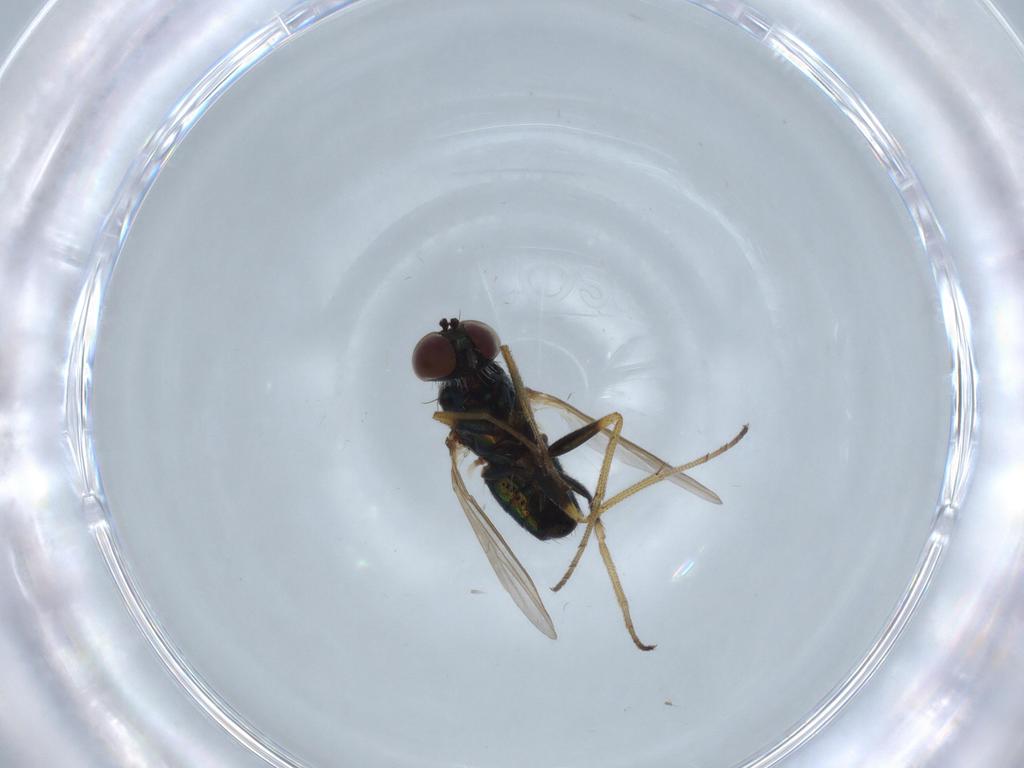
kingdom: Animalia
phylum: Arthropoda
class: Insecta
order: Diptera
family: Dolichopodidae
